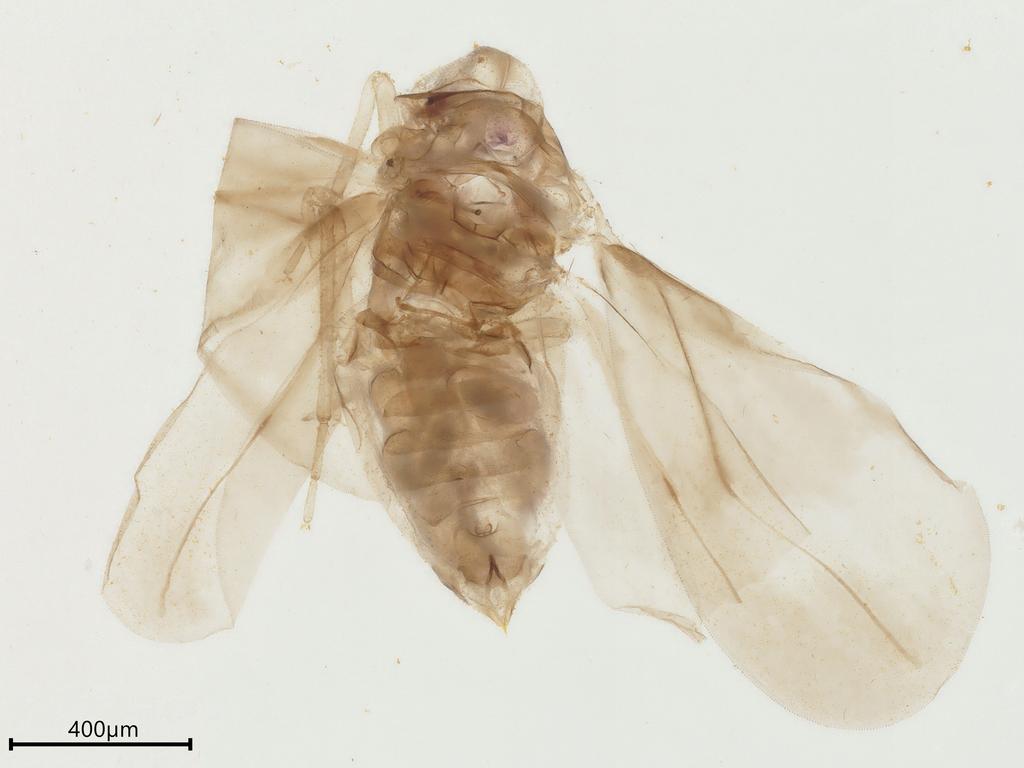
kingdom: Animalia
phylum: Arthropoda
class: Insecta
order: Hemiptera
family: Aleyrodidae
